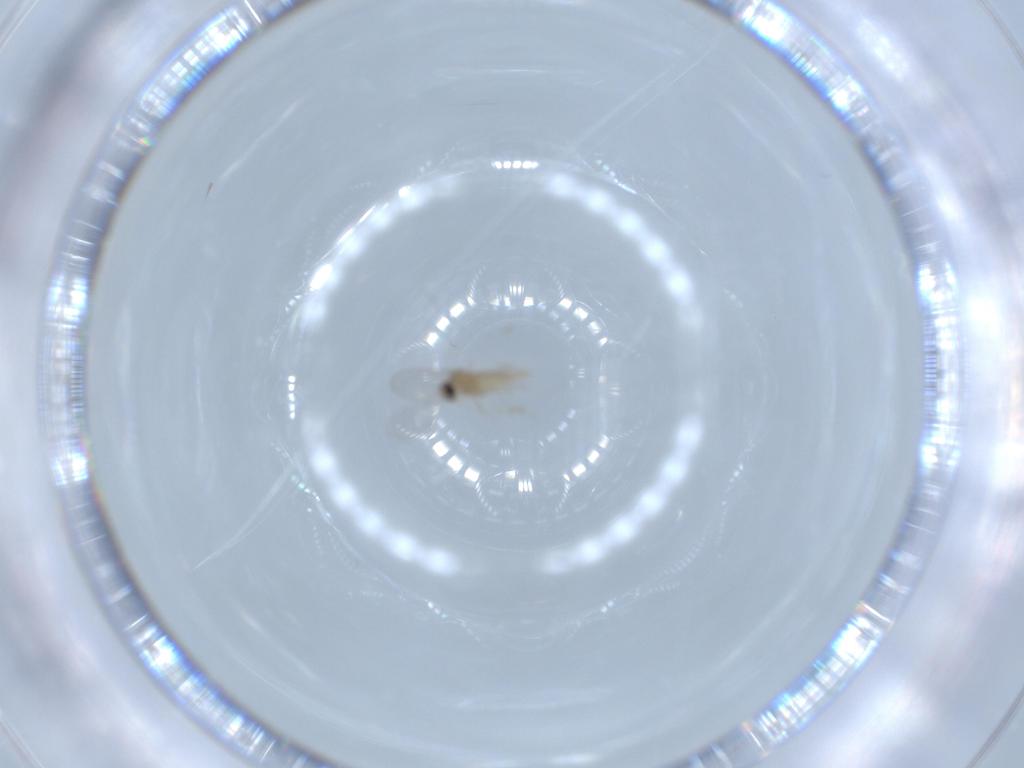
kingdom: Animalia
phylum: Arthropoda
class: Insecta
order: Diptera
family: Cecidomyiidae
